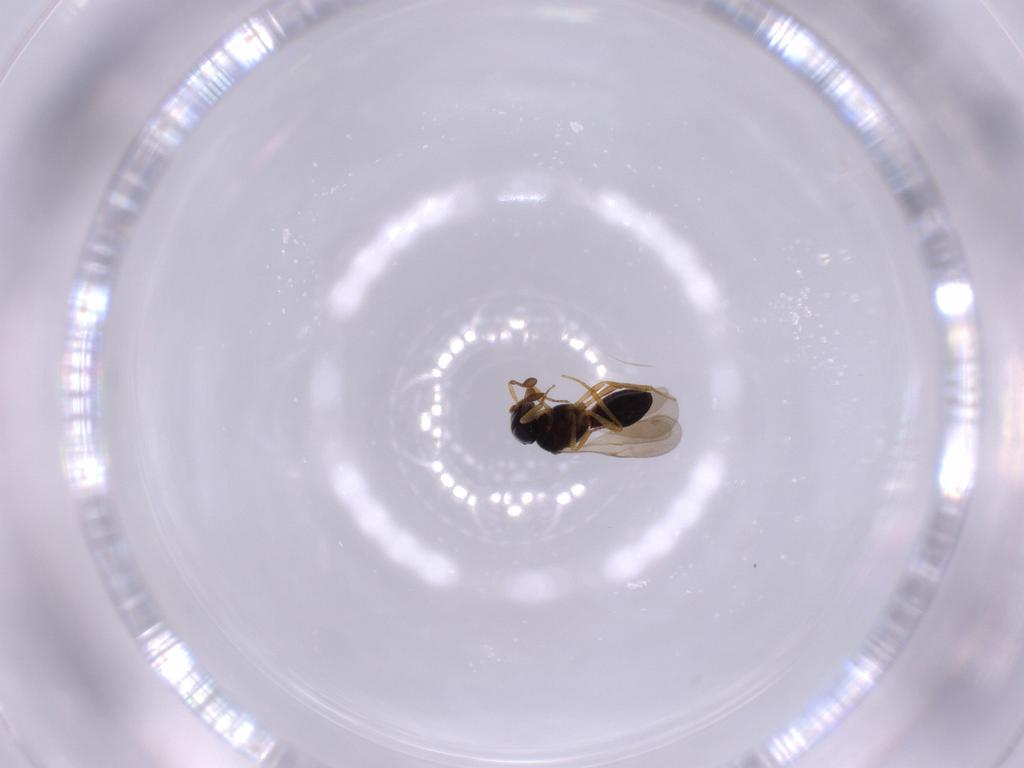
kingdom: Animalia
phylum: Arthropoda
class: Insecta
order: Hymenoptera
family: Scelionidae
